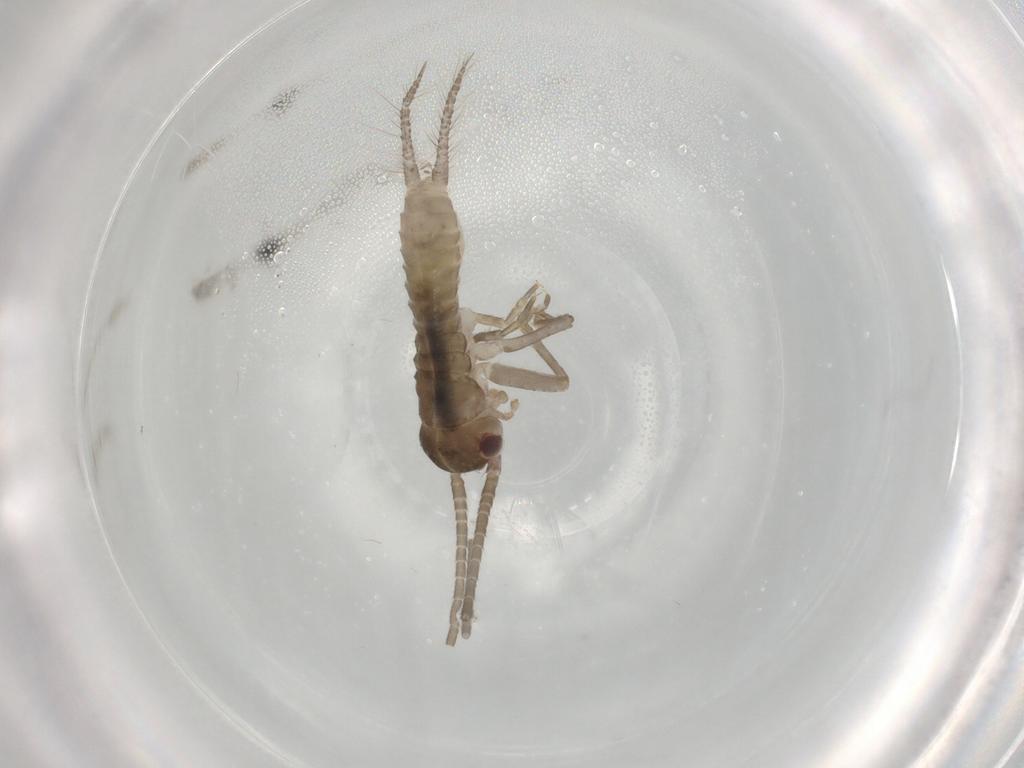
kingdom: Animalia
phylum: Arthropoda
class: Insecta
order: Orthoptera
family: Gryllidae
